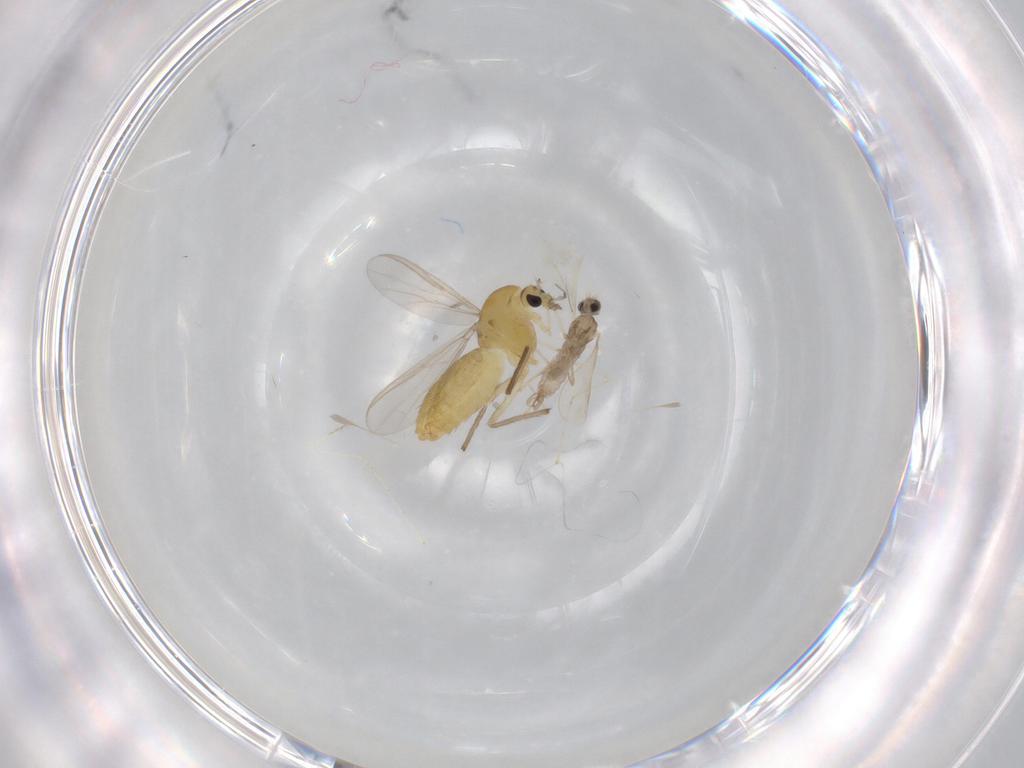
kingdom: Animalia
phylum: Arthropoda
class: Insecta
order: Diptera
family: Chironomidae
